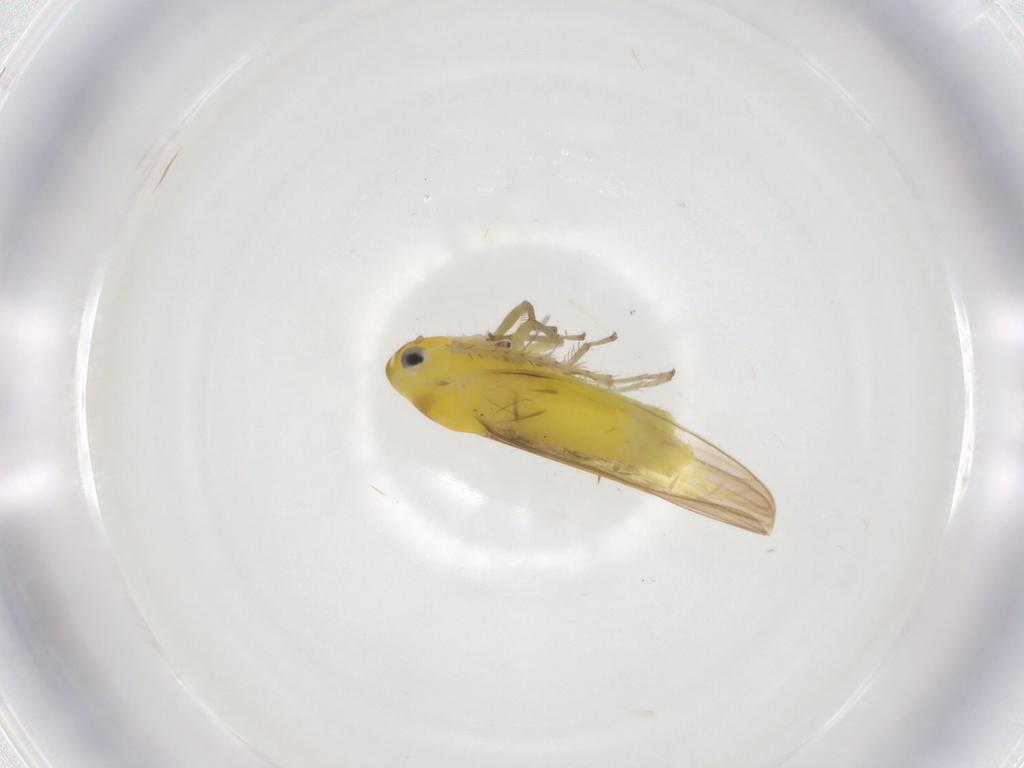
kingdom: Animalia
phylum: Arthropoda
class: Insecta
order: Hemiptera
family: Cicadellidae
